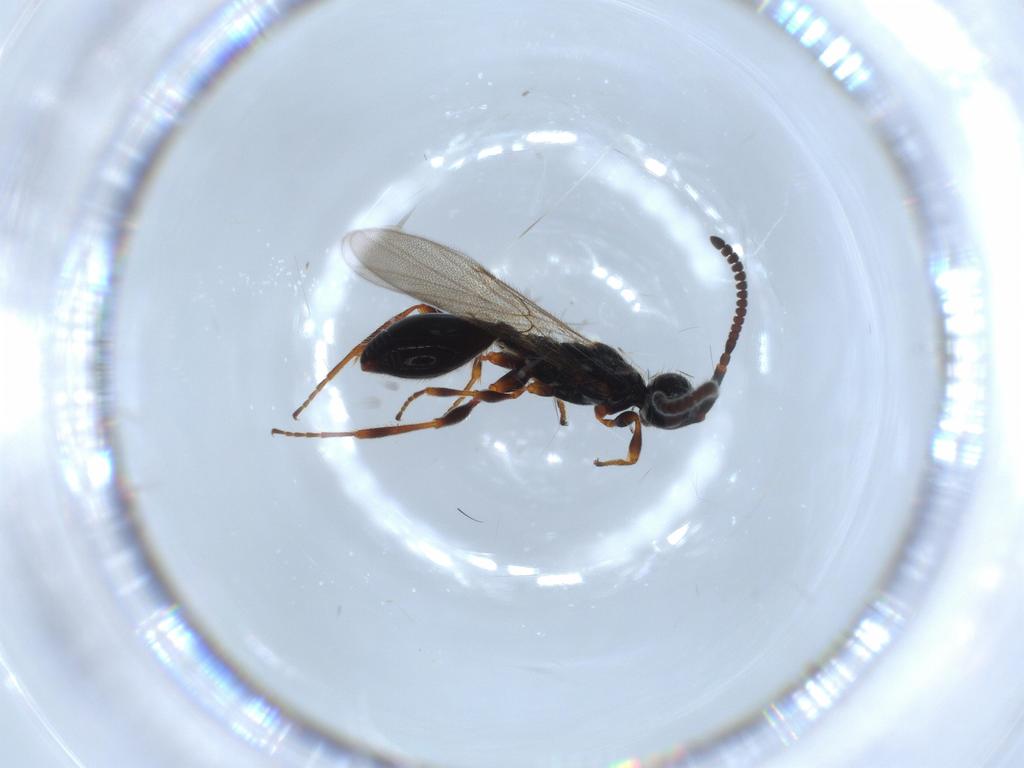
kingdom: Animalia
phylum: Arthropoda
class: Insecta
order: Hymenoptera
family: Diapriidae
